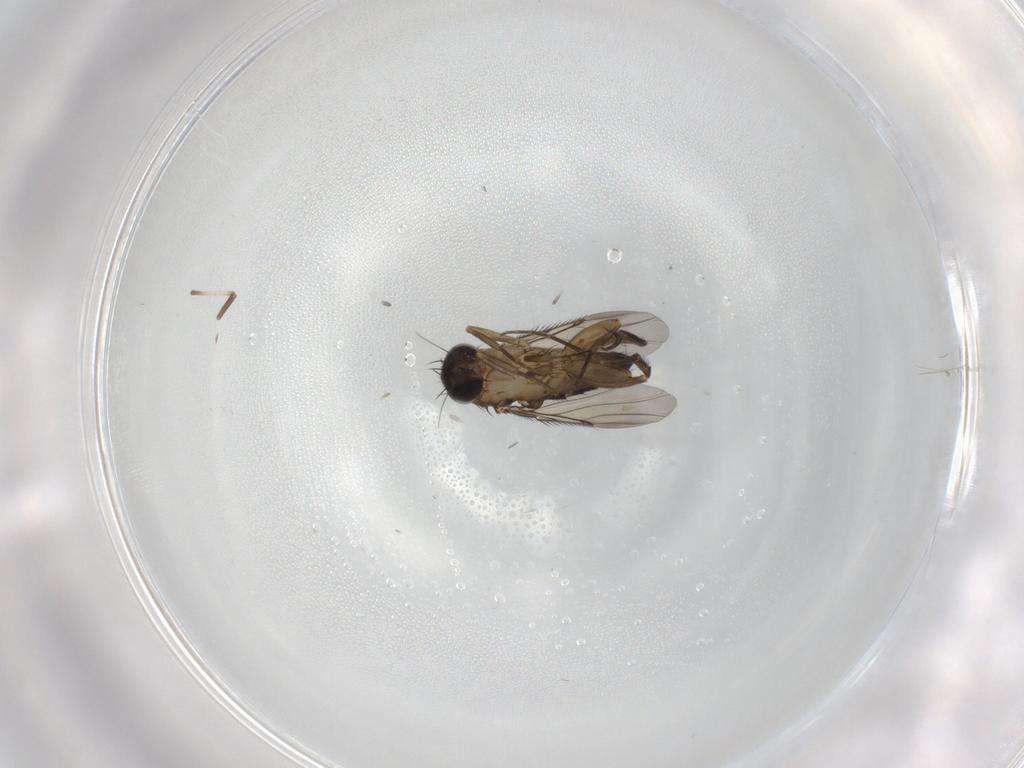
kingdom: Animalia
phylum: Arthropoda
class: Insecta
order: Diptera
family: Phoridae
